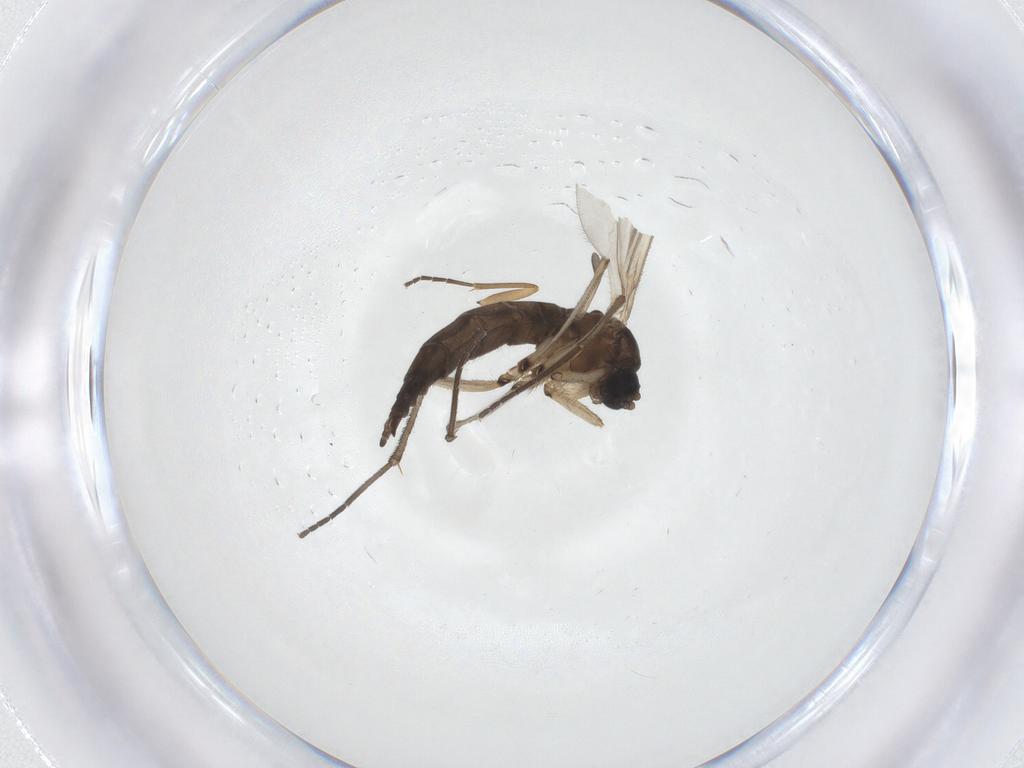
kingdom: Animalia
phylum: Arthropoda
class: Insecta
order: Diptera
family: Sciaridae
